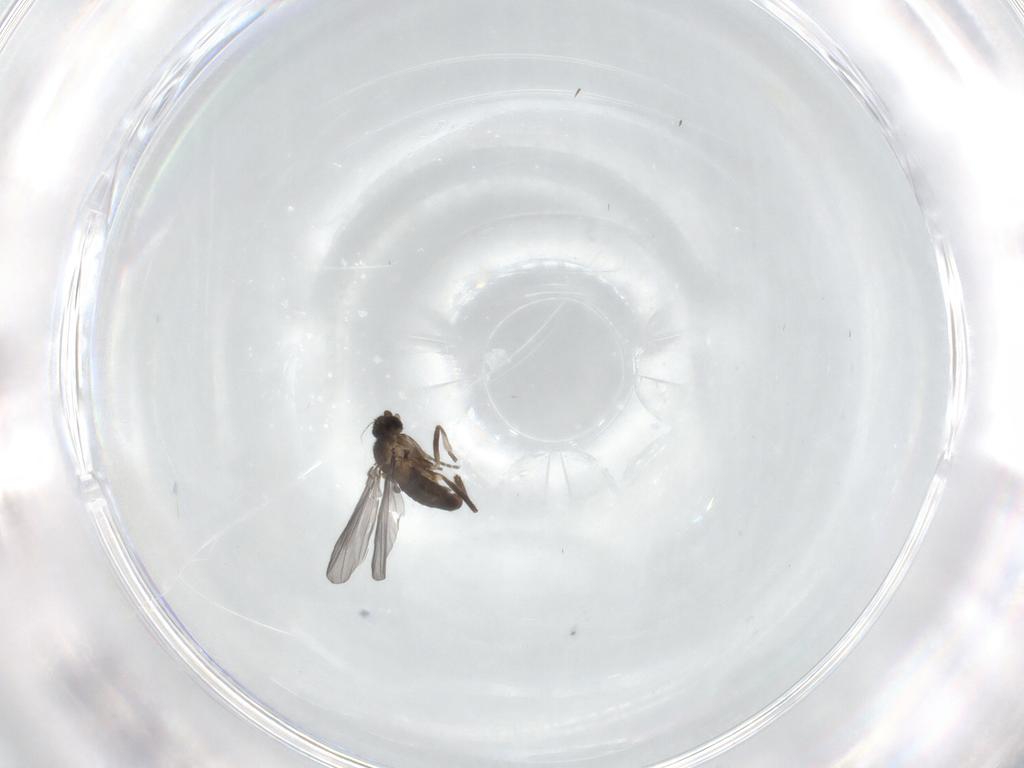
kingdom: Animalia
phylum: Arthropoda
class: Insecta
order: Diptera
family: Phoridae
